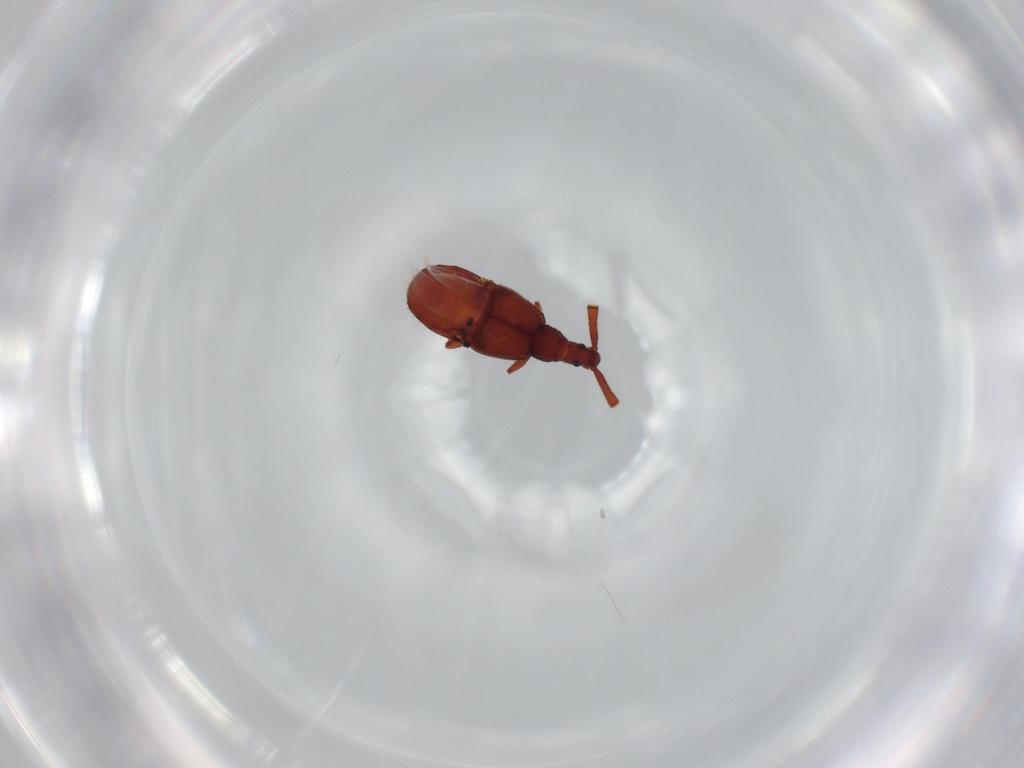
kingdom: Animalia
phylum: Arthropoda
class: Insecta
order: Coleoptera
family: Staphylinidae
